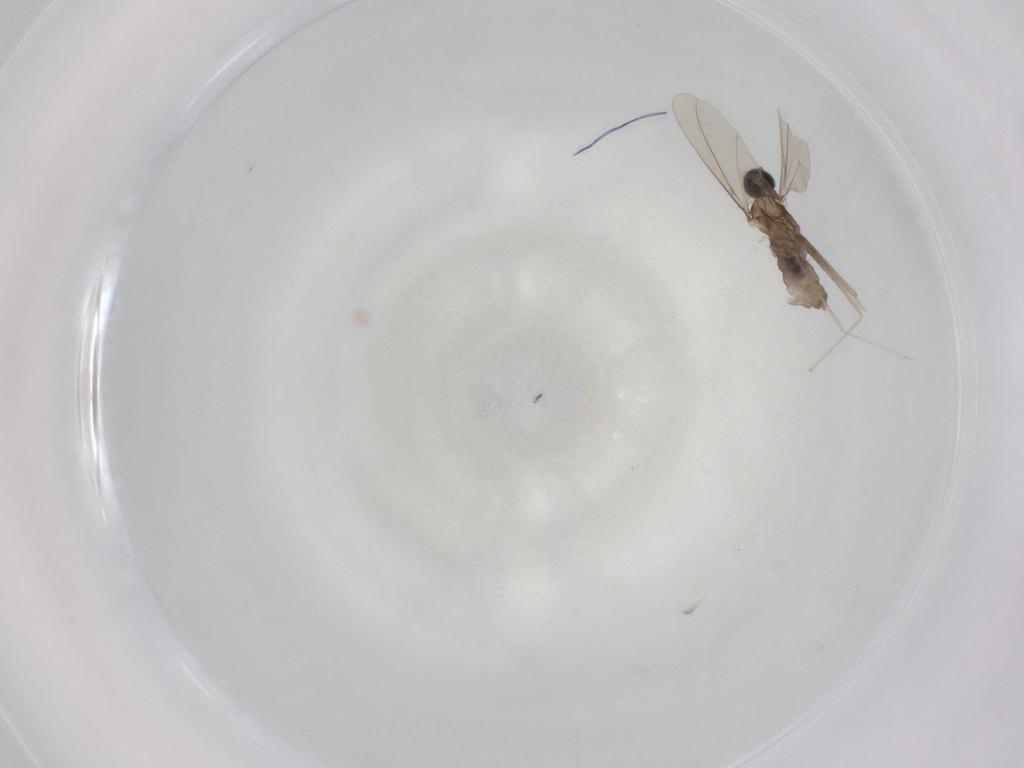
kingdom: Animalia
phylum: Arthropoda
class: Insecta
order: Diptera
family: Cecidomyiidae
